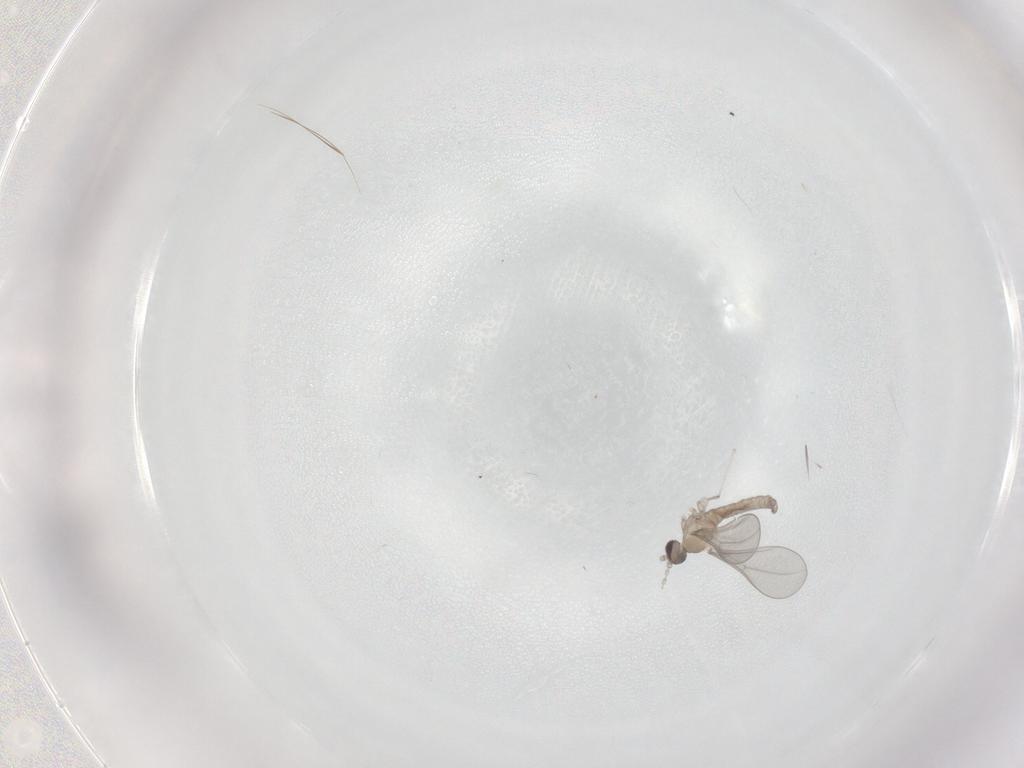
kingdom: Animalia
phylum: Arthropoda
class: Insecta
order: Diptera
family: Cecidomyiidae
